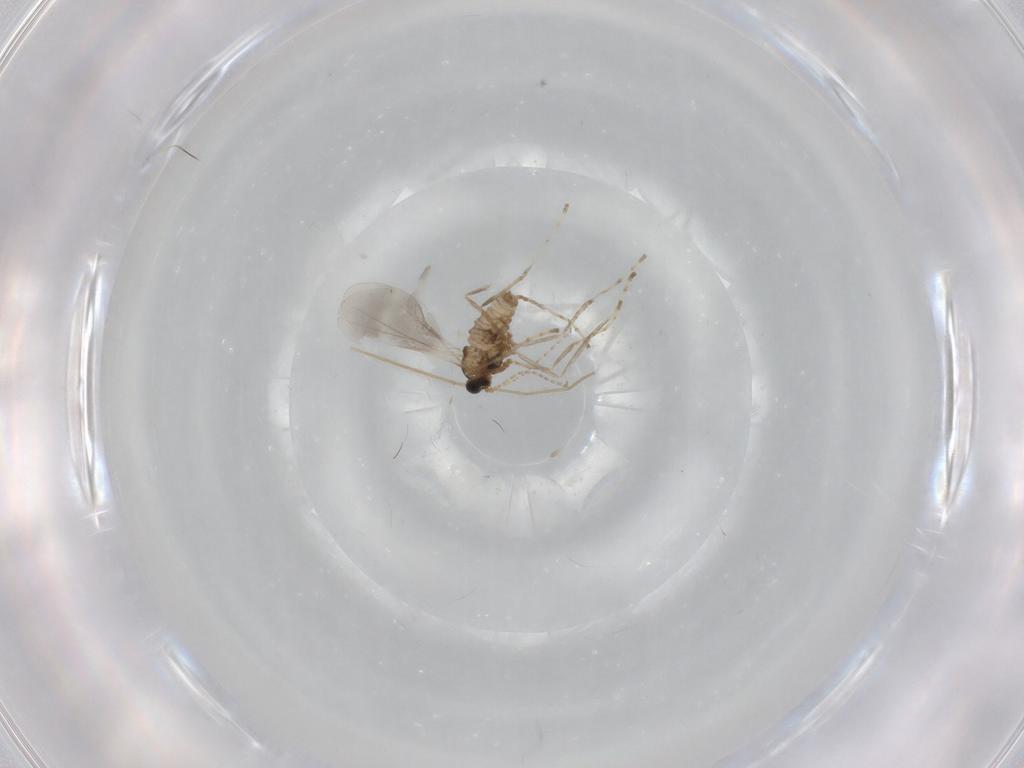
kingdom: Animalia
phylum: Arthropoda
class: Insecta
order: Diptera
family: Cecidomyiidae
